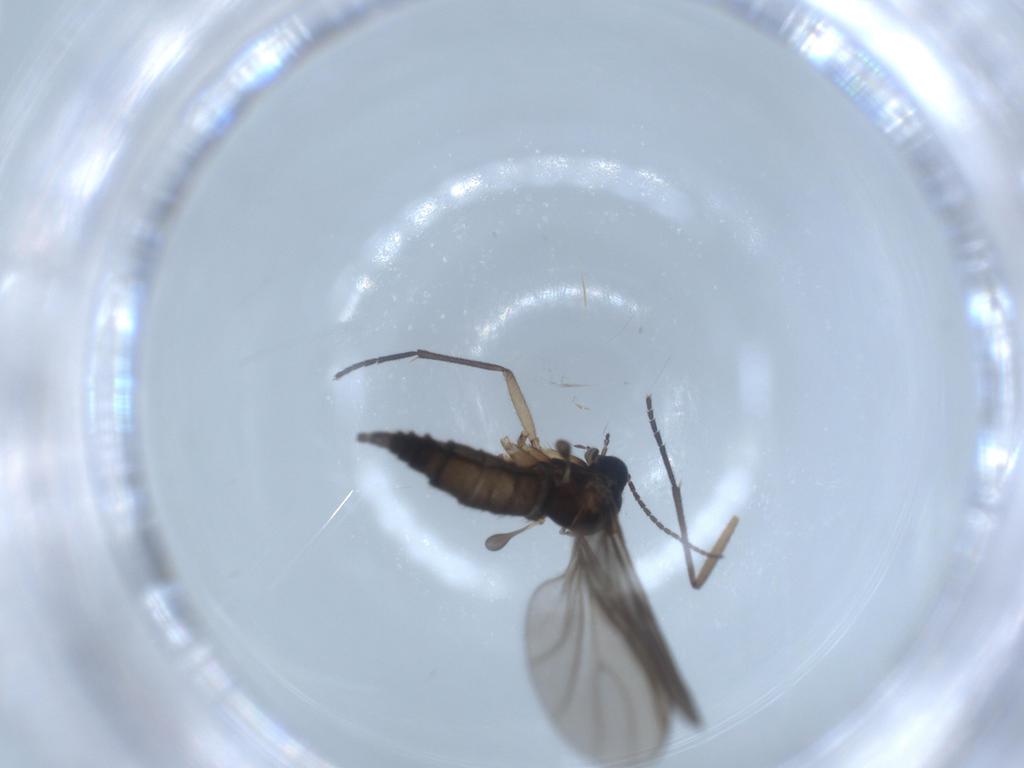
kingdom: Animalia
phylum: Arthropoda
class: Insecta
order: Diptera
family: Sciaridae
